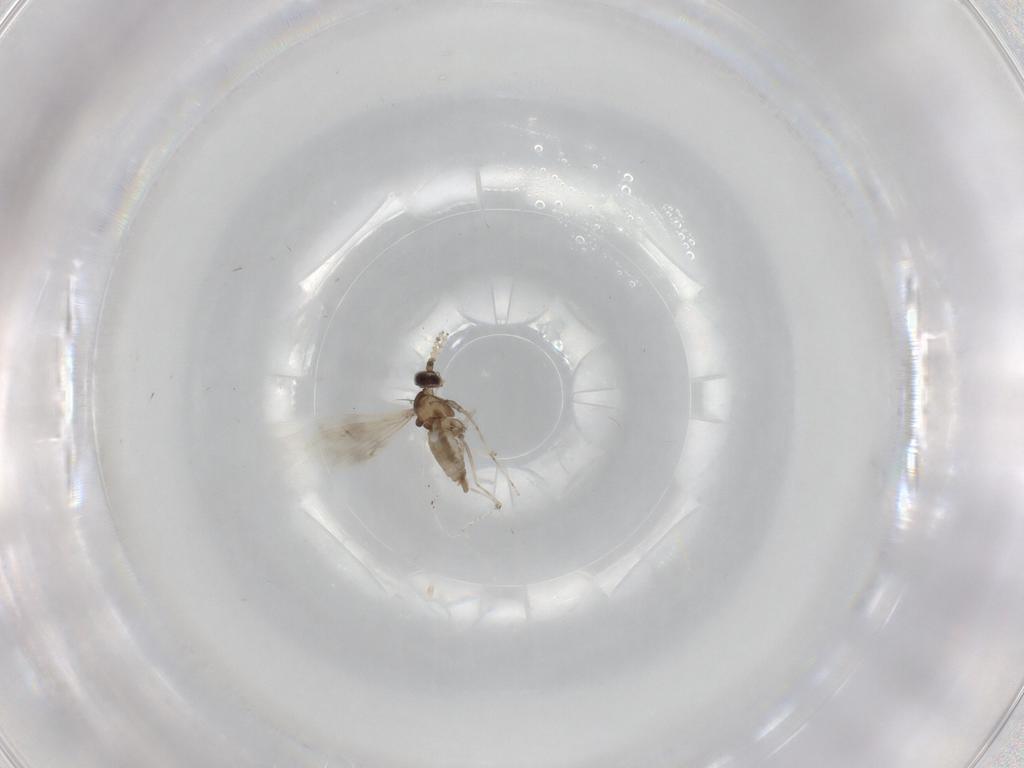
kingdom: Animalia
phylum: Arthropoda
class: Insecta
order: Diptera
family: Cecidomyiidae
